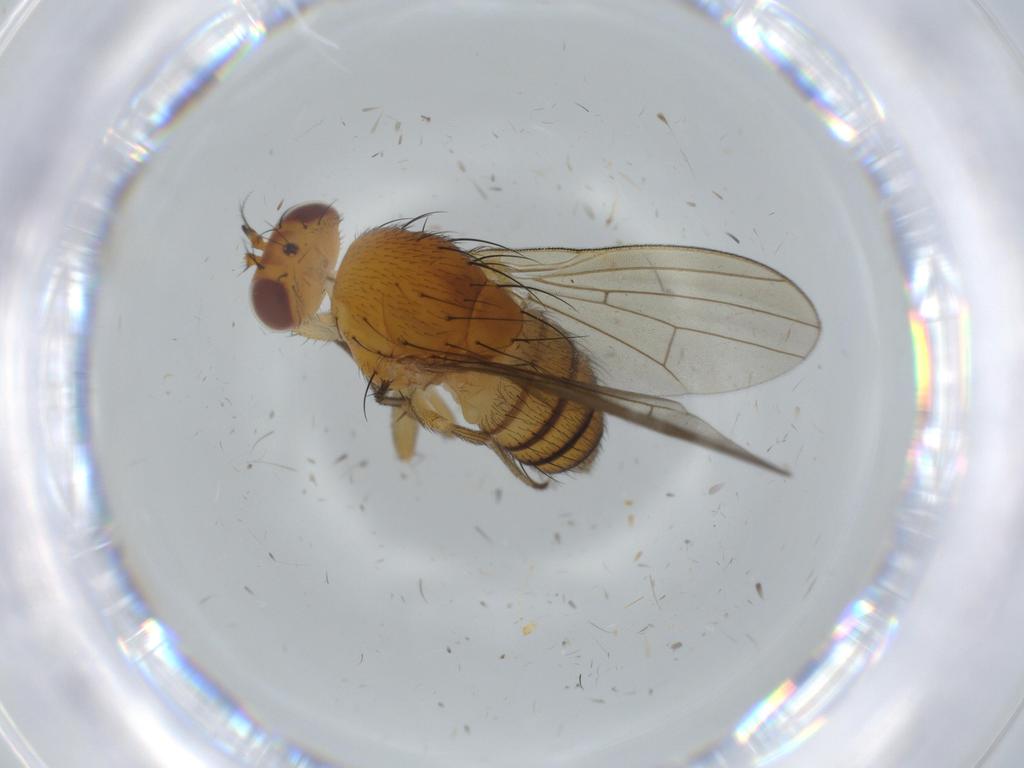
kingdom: Animalia
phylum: Arthropoda
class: Insecta
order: Diptera
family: Lauxaniidae
